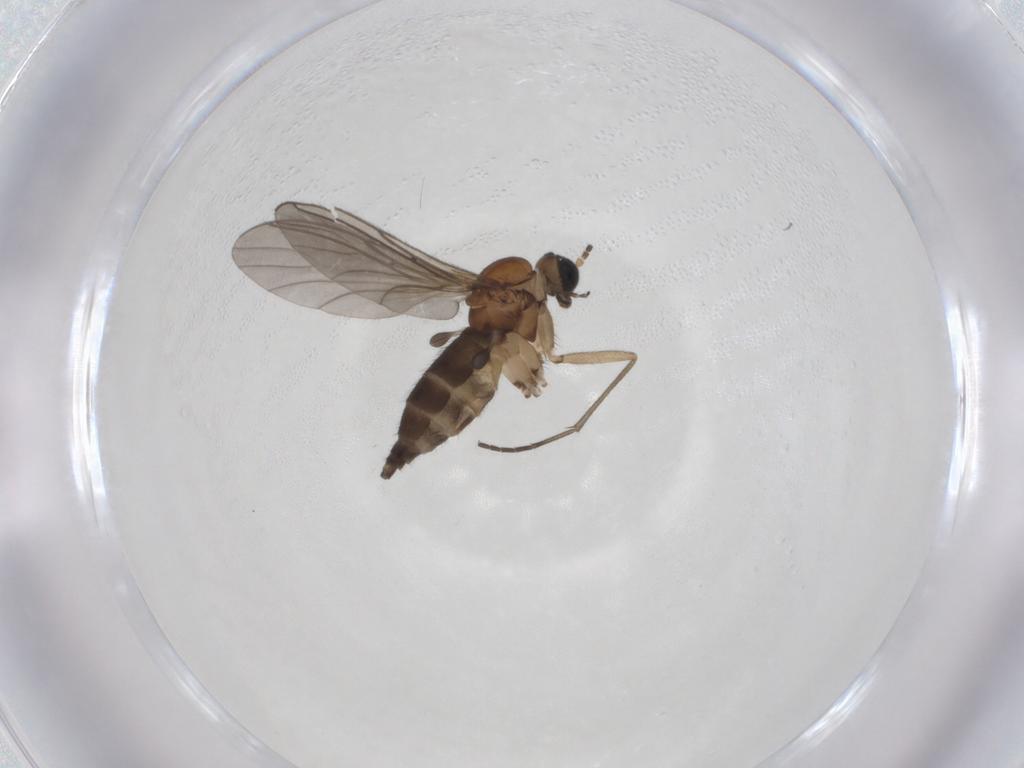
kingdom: Animalia
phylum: Arthropoda
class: Insecta
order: Diptera
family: Sciaridae
